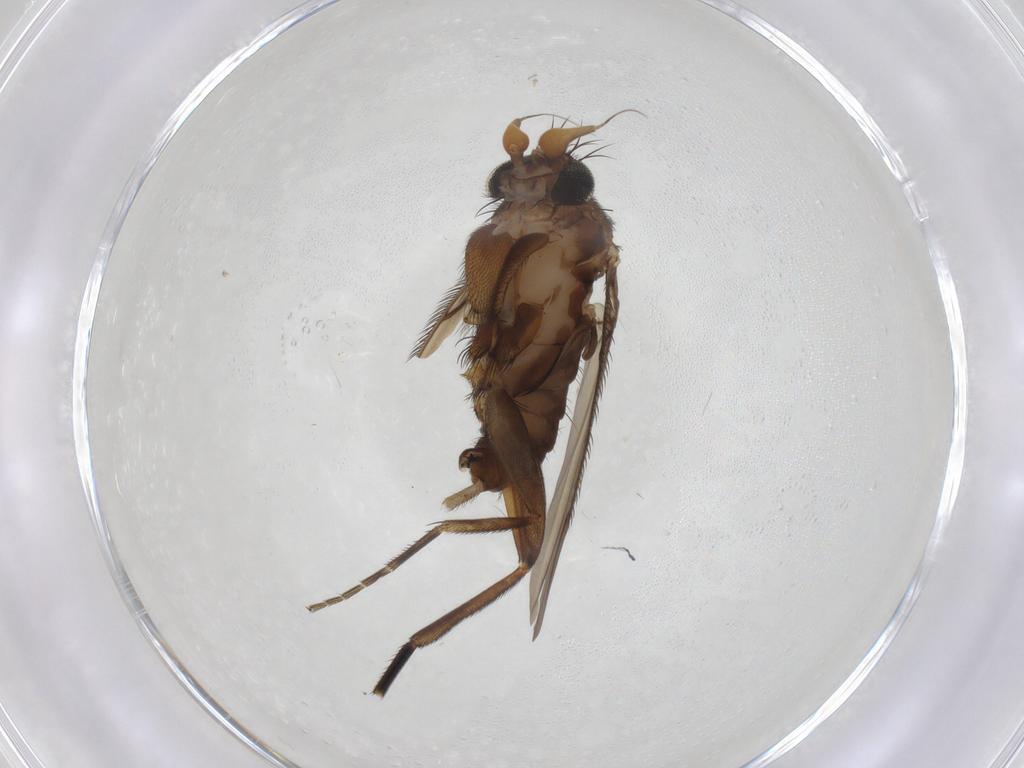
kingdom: Animalia
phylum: Arthropoda
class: Insecta
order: Diptera
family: Phoridae
